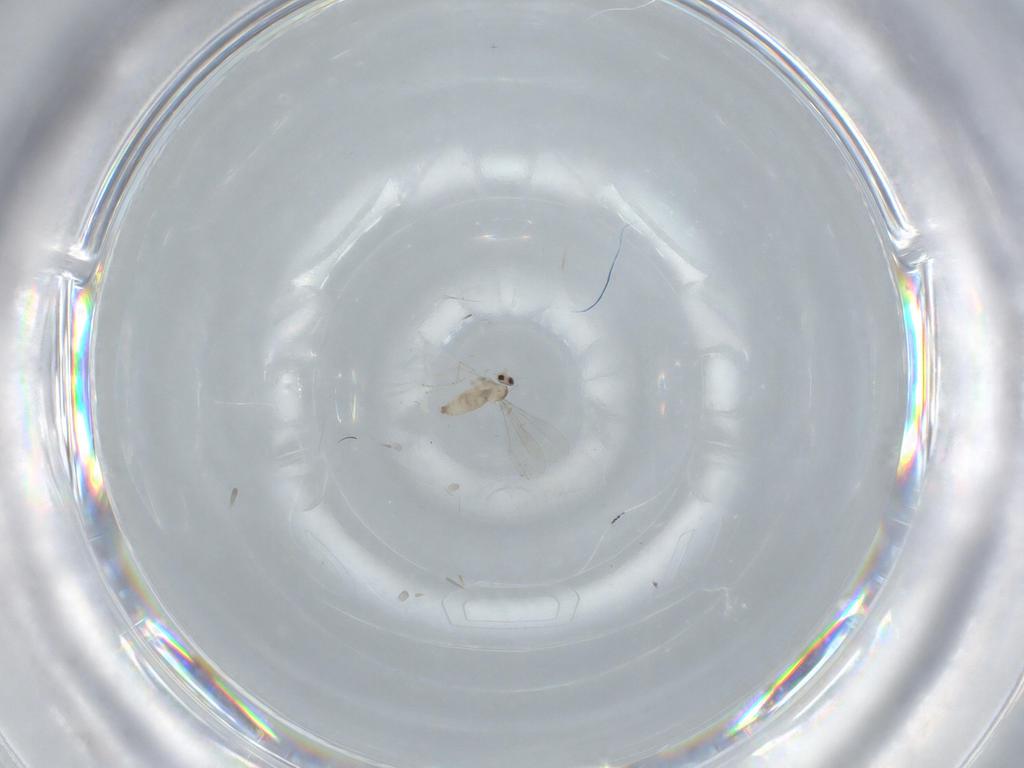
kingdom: Animalia
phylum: Arthropoda
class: Insecta
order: Diptera
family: Cecidomyiidae
